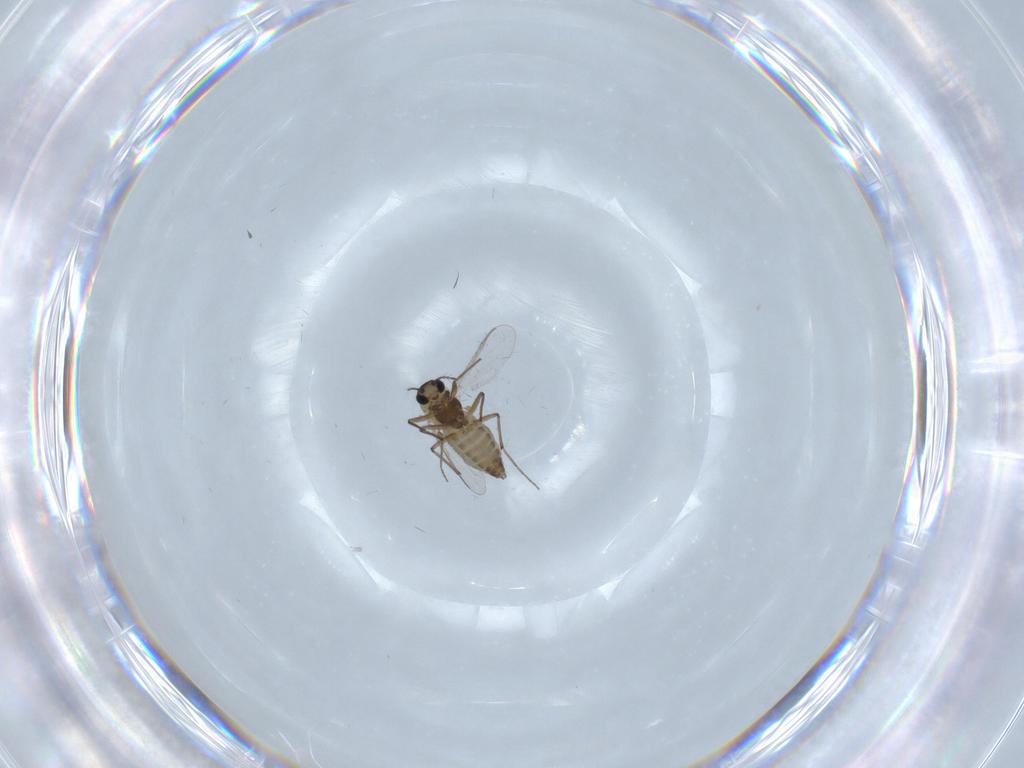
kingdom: Animalia
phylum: Arthropoda
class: Insecta
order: Diptera
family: Chironomidae
